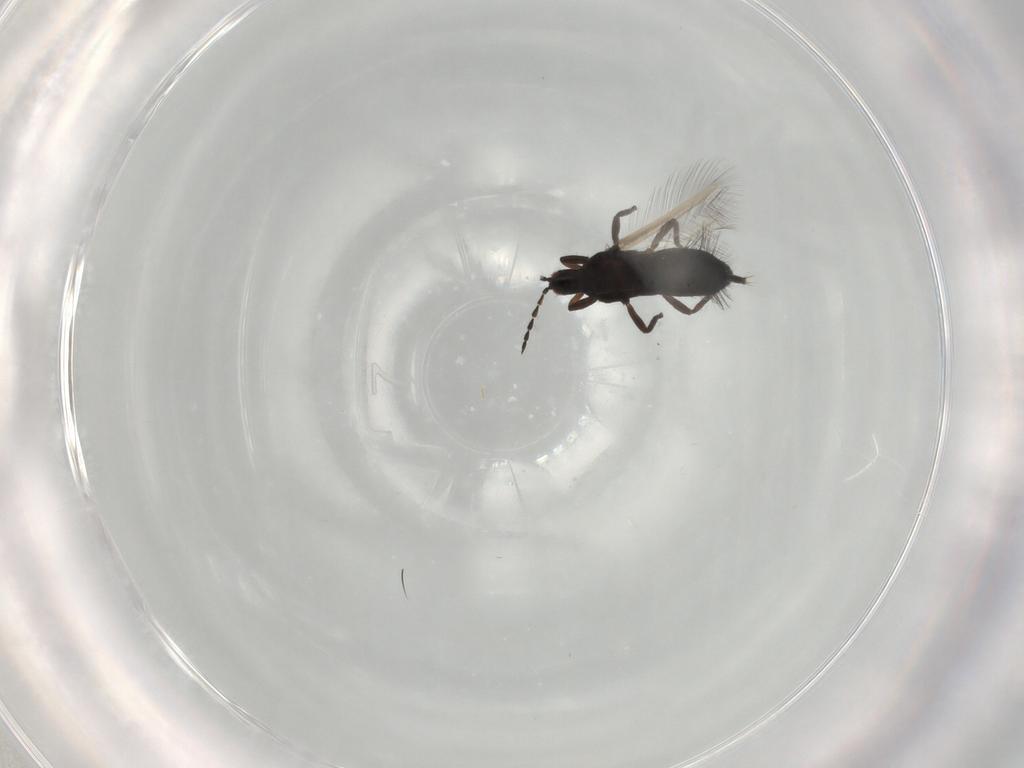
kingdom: Animalia
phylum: Arthropoda
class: Insecta
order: Thysanoptera
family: Phlaeothripidae
